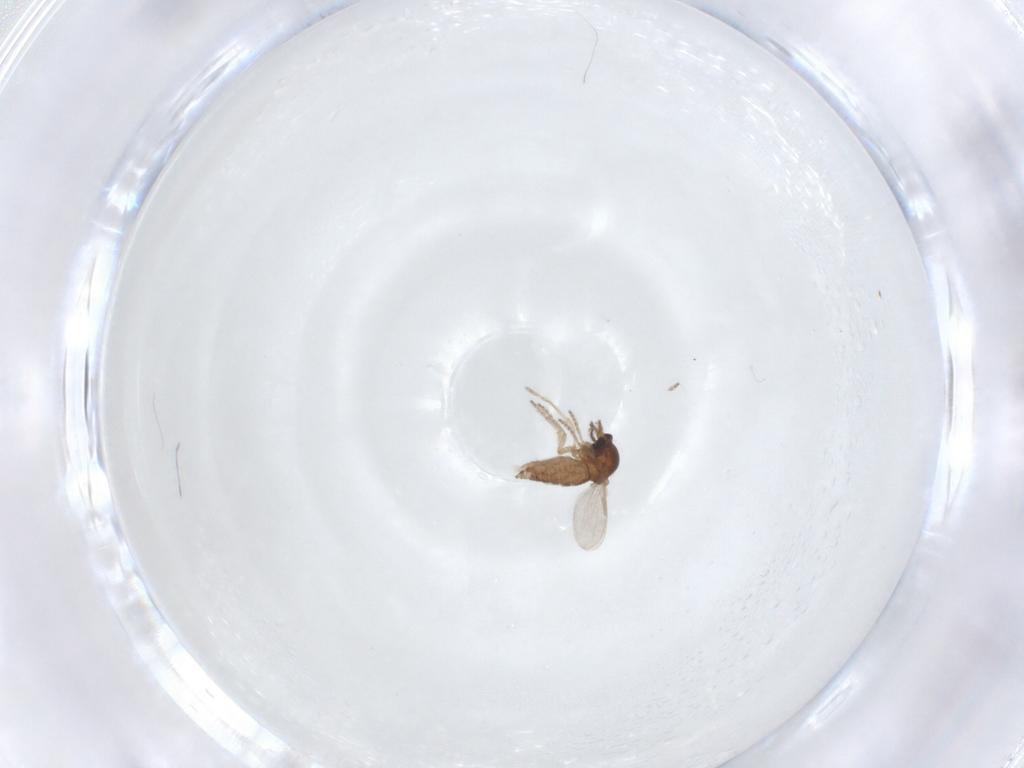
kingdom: Animalia
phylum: Arthropoda
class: Insecta
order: Diptera
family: Ceratopogonidae
